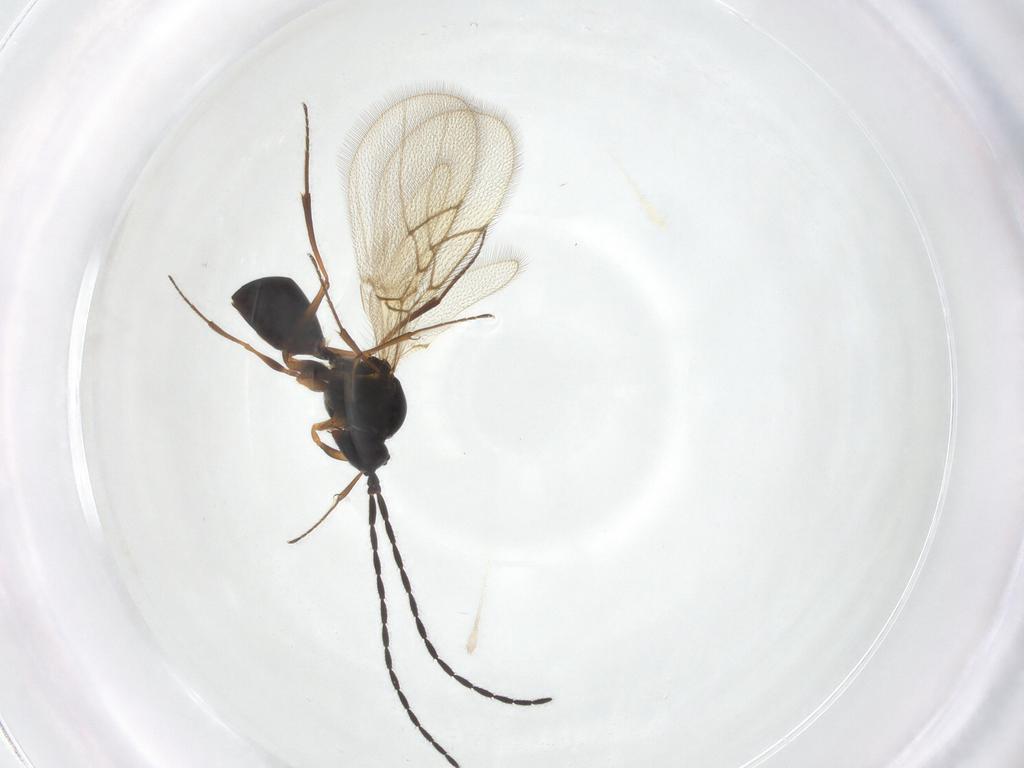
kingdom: Animalia
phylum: Arthropoda
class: Insecta
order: Hymenoptera
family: Figitidae
